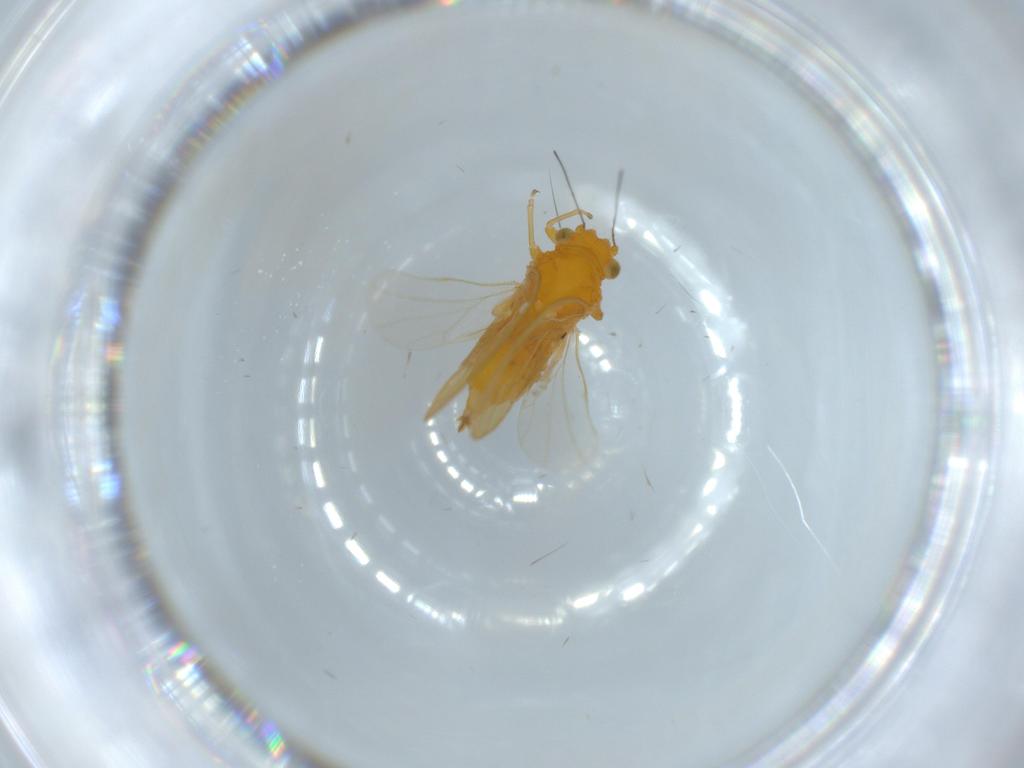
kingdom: Animalia
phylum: Arthropoda
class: Insecta
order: Hemiptera
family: Psyllidae
